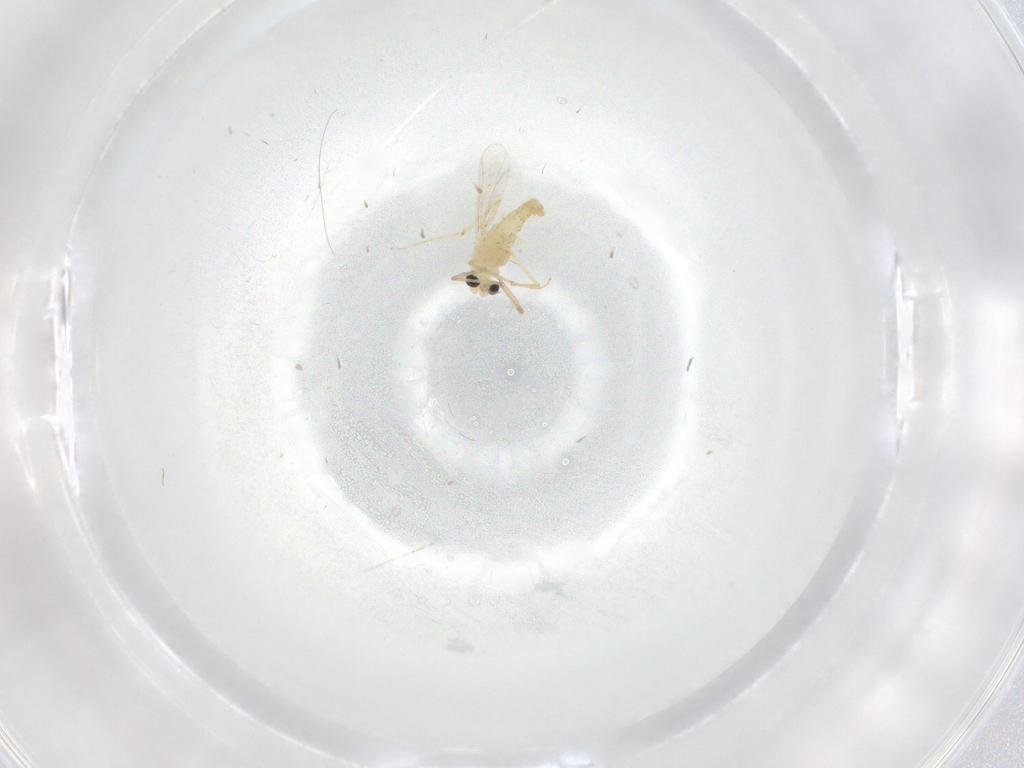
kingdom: Animalia
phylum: Arthropoda
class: Insecta
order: Diptera
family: Chironomidae
